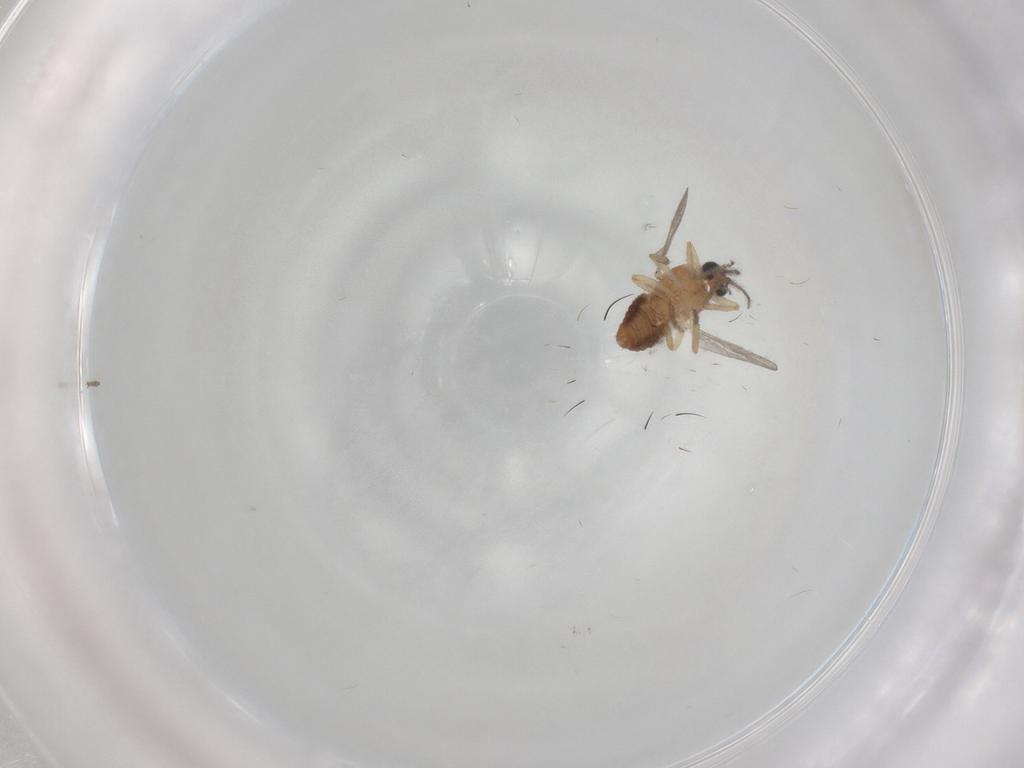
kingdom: Animalia
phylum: Arthropoda
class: Insecta
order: Diptera
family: Ceratopogonidae
